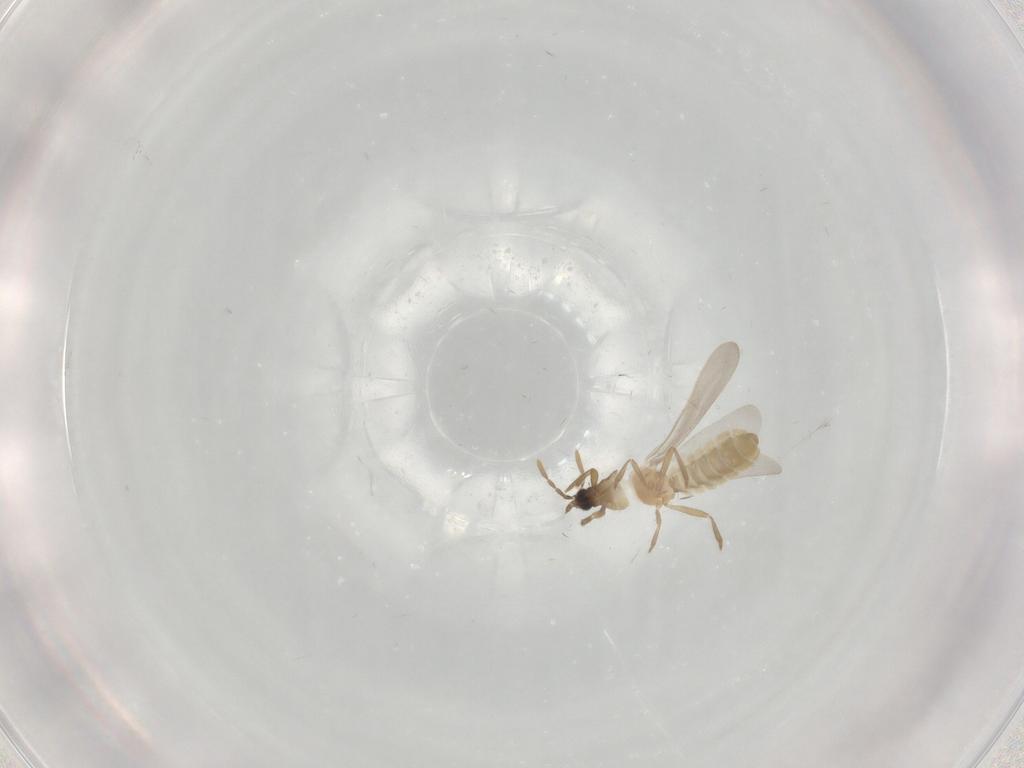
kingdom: Animalia
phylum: Arthropoda
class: Insecta
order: Hemiptera
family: Enicocephalidae
